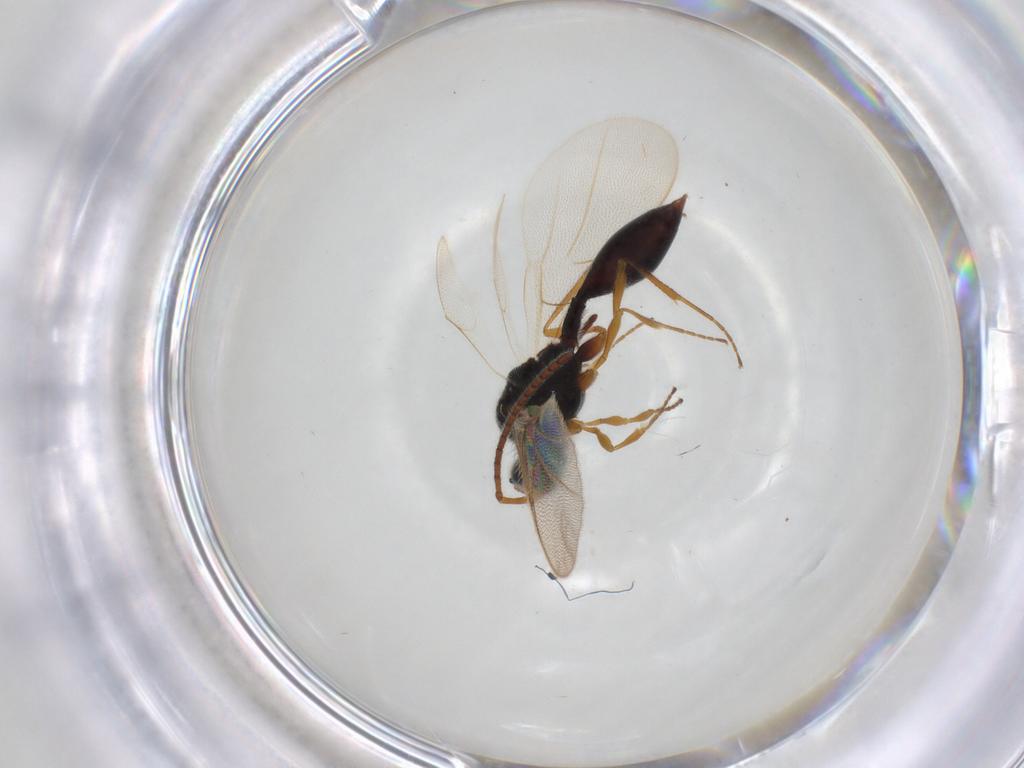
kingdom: Animalia
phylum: Arthropoda
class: Insecta
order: Hymenoptera
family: Diapriidae
